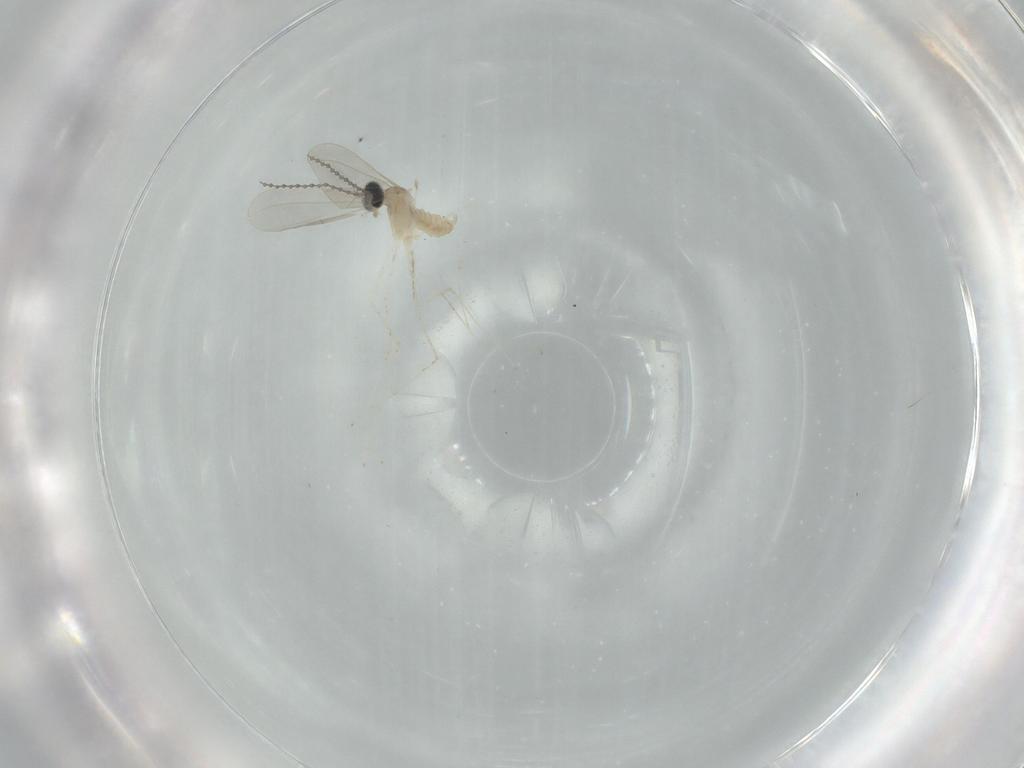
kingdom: Animalia
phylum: Arthropoda
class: Insecta
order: Diptera
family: Cecidomyiidae
